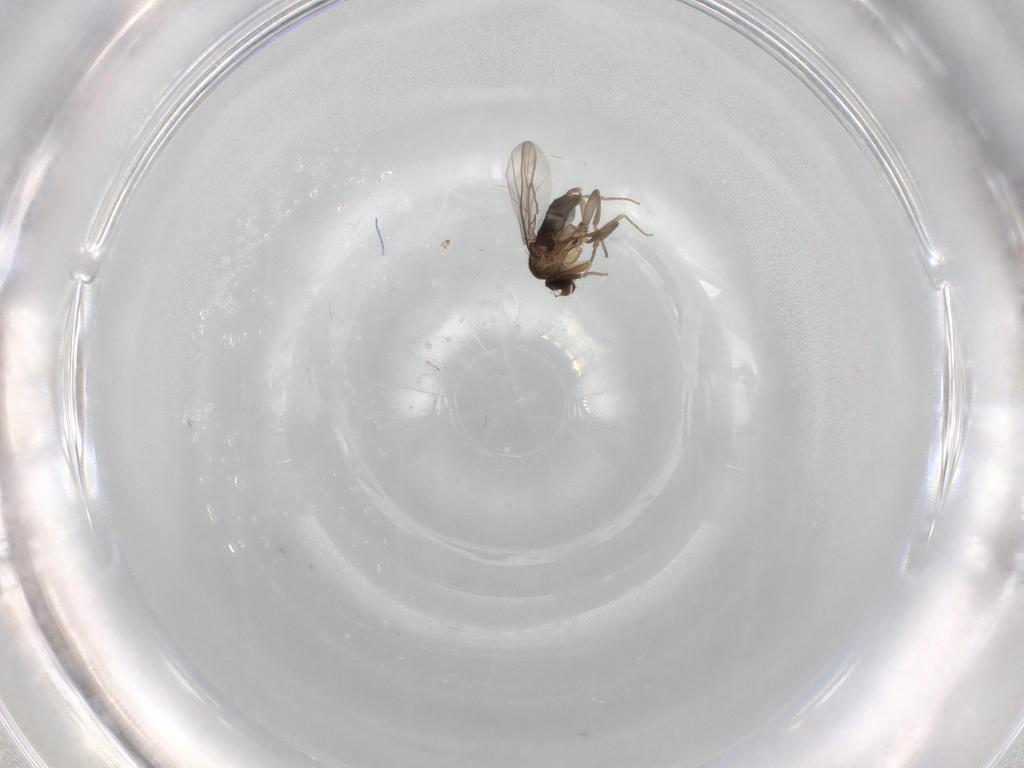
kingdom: Animalia
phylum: Arthropoda
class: Insecta
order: Diptera
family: Phoridae
